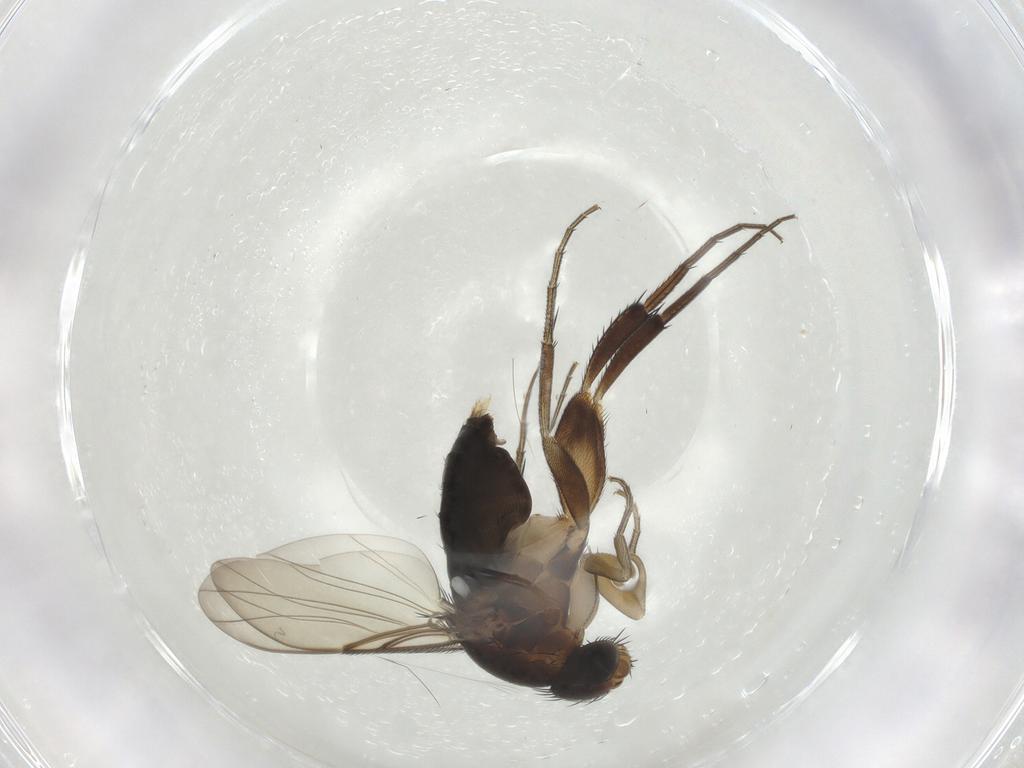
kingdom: Animalia
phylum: Arthropoda
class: Insecta
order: Diptera
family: Phoridae
